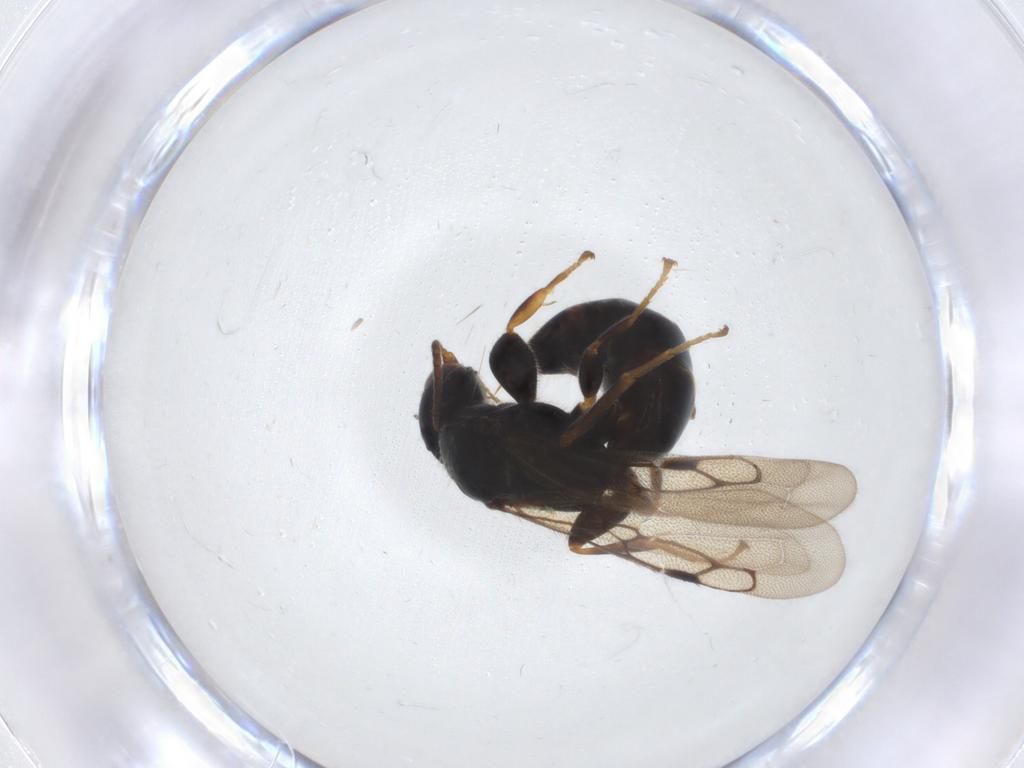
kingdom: Animalia
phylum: Arthropoda
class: Insecta
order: Hymenoptera
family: Bethylidae
